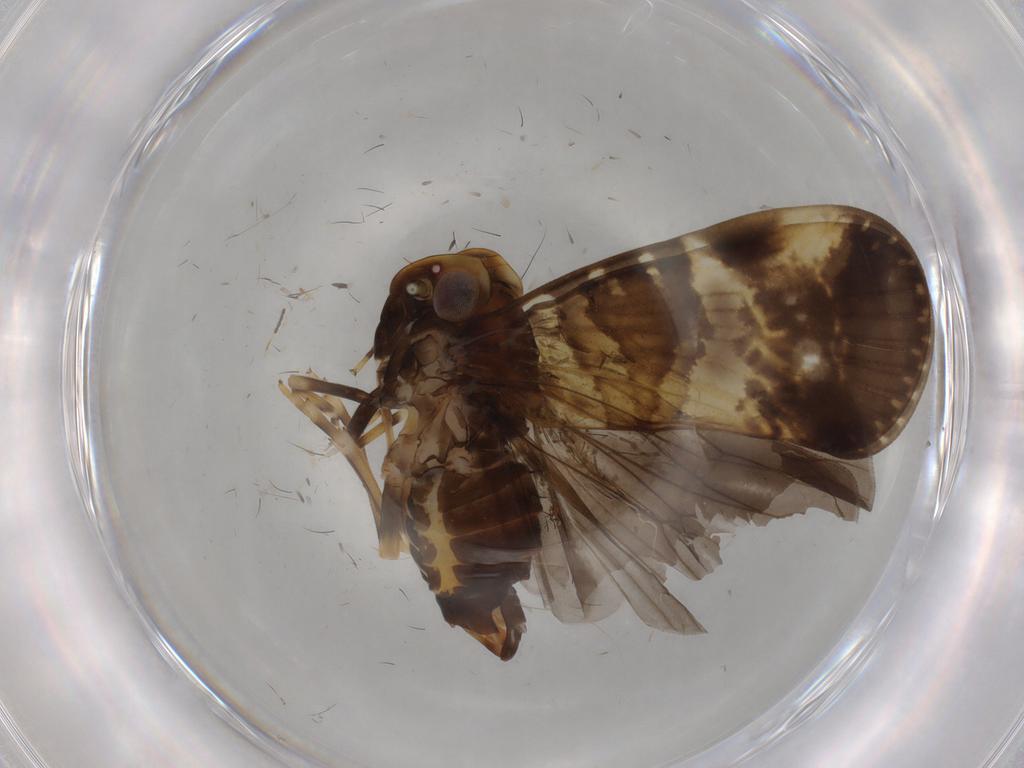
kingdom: Animalia
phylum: Arthropoda
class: Insecta
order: Hemiptera
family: Cixiidae
